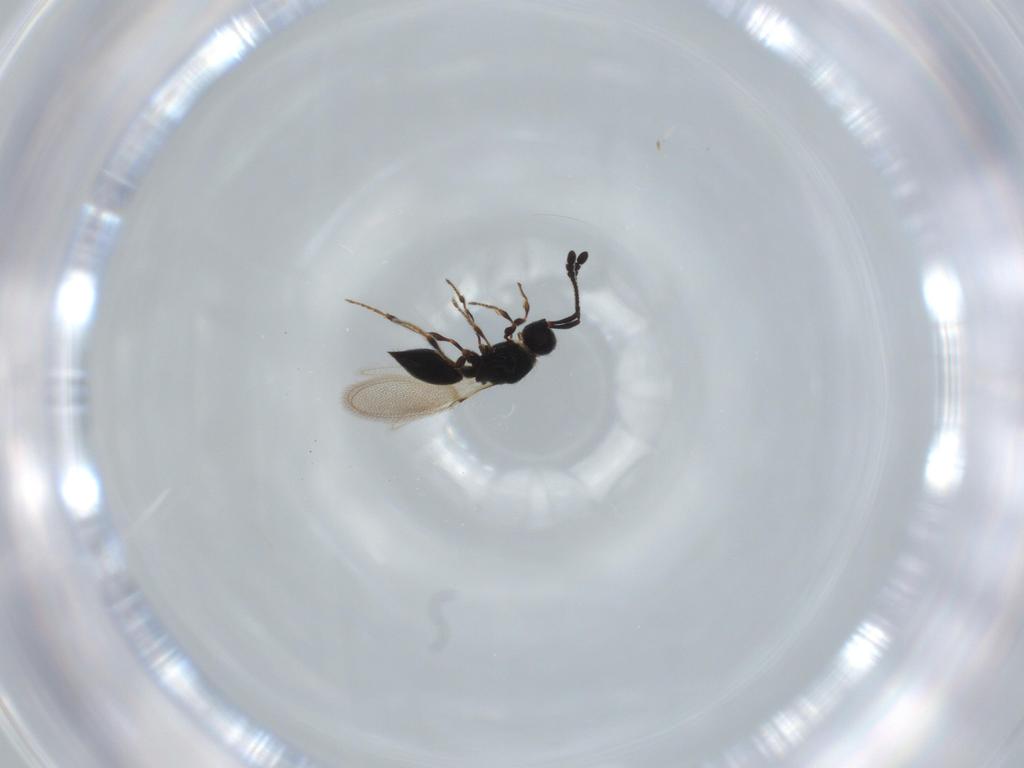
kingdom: Animalia
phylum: Arthropoda
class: Insecta
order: Hymenoptera
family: Diapriidae
